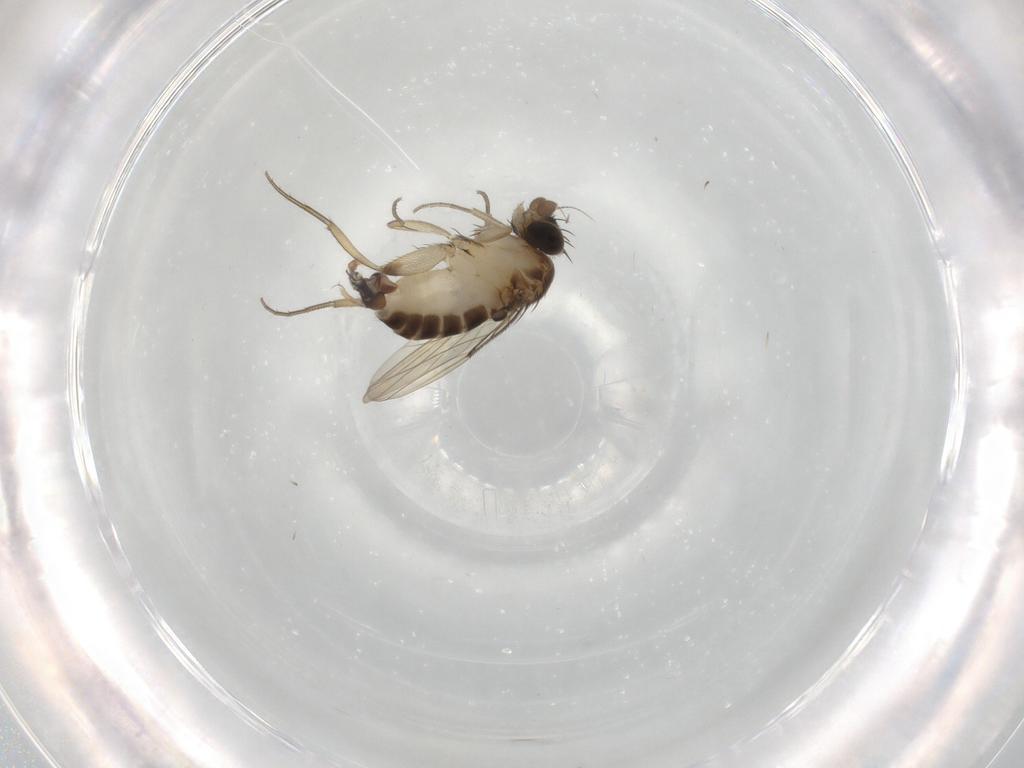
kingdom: Animalia
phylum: Arthropoda
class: Insecta
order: Diptera
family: Phoridae
